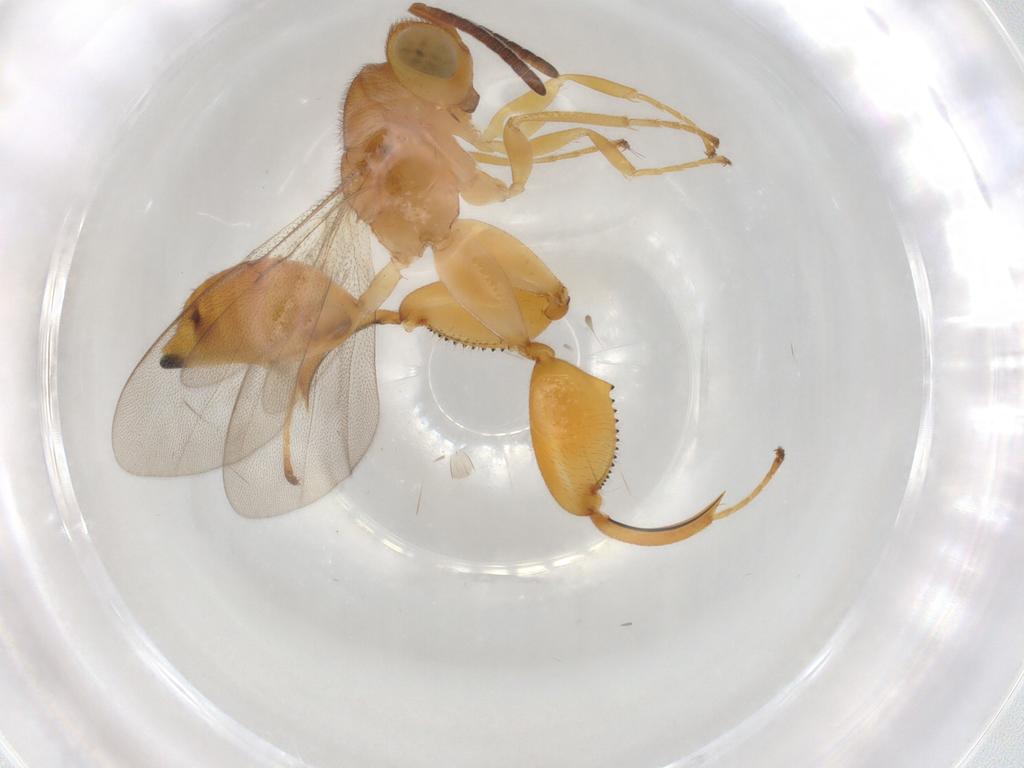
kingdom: Animalia
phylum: Arthropoda
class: Insecta
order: Hymenoptera
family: Chalcididae
